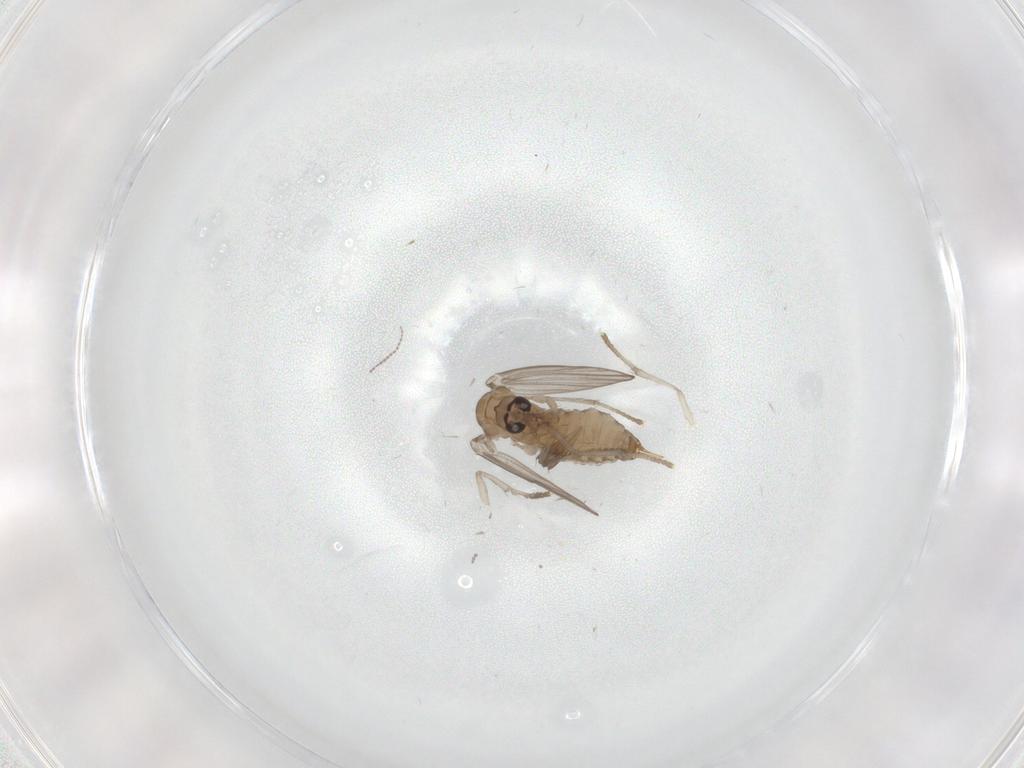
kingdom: Animalia
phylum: Arthropoda
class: Insecta
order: Diptera
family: Psychodidae
